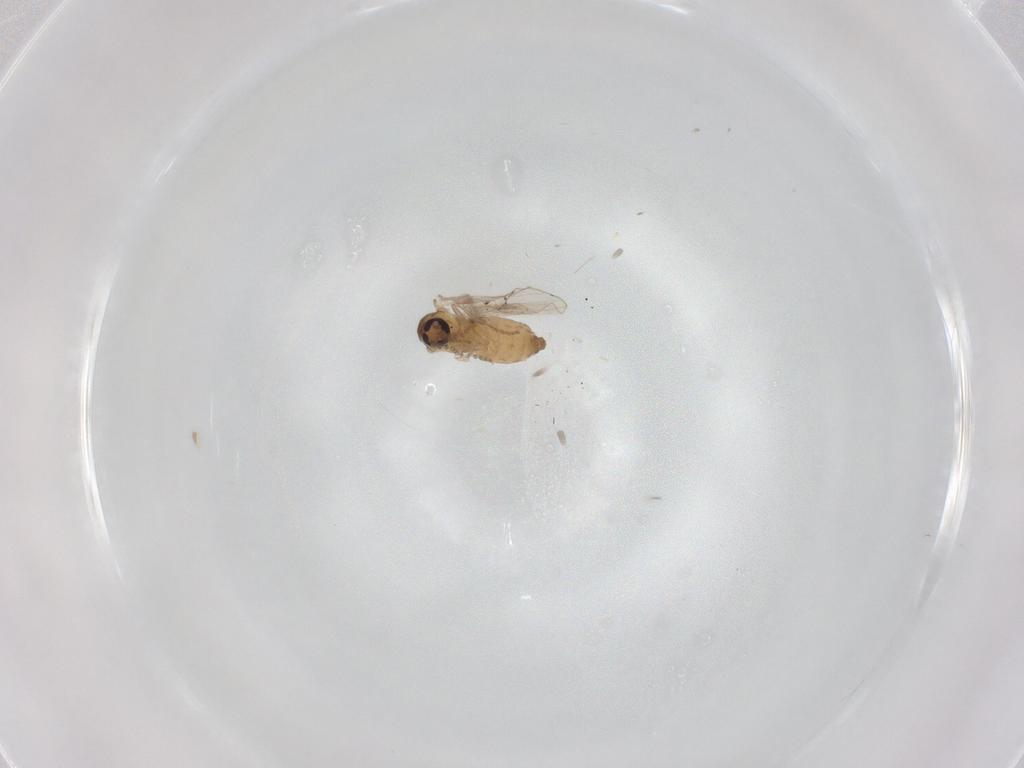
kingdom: Animalia
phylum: Arthropoda
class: Insecta
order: Diptera
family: Psychodidae
